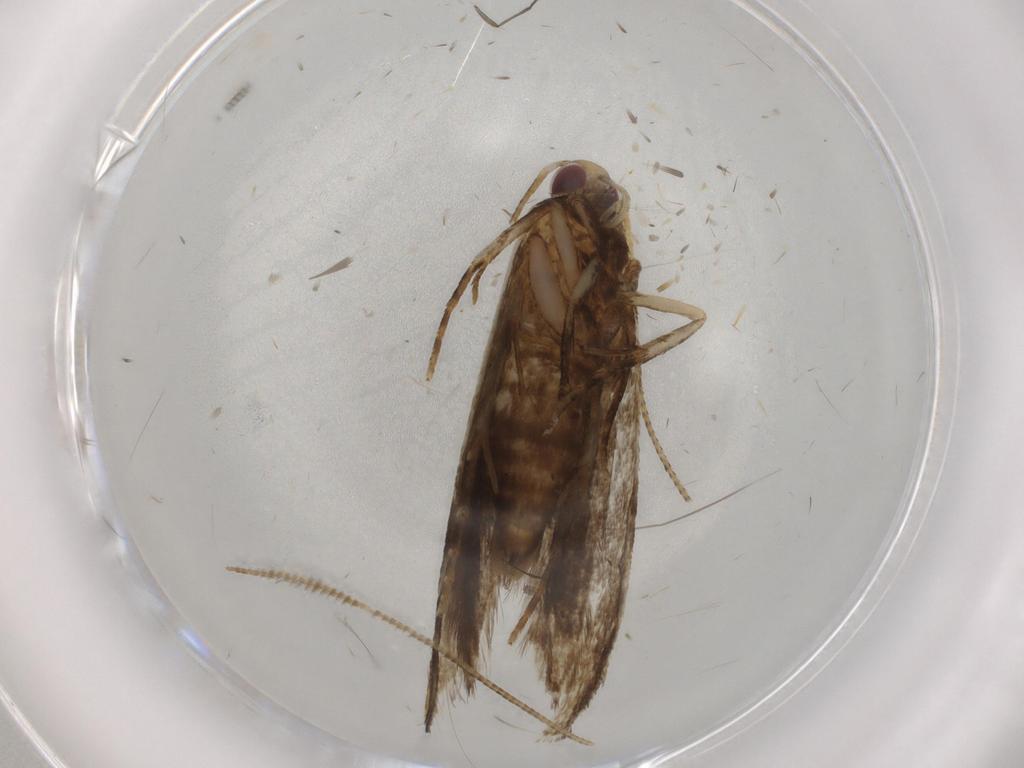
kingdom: Animalia
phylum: Arthropoda
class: Insecta
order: Lepidoptera
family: Gelechiidae
